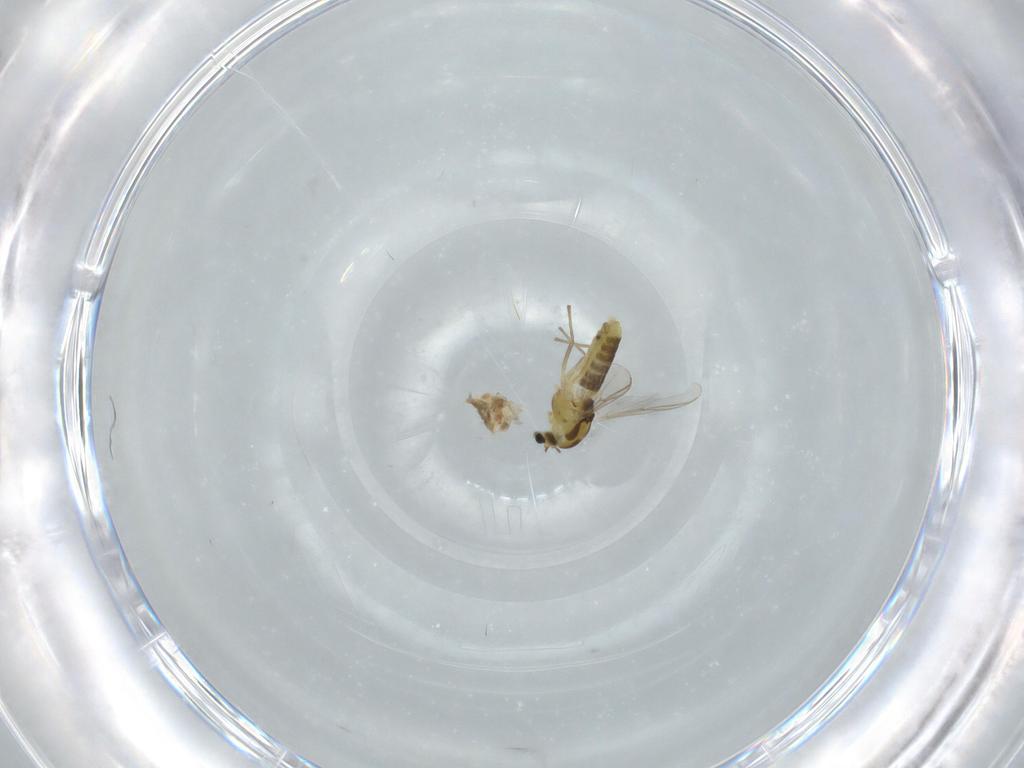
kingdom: Animalia
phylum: Arthropoda
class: Insecta
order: Diptera
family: Chironomidae
